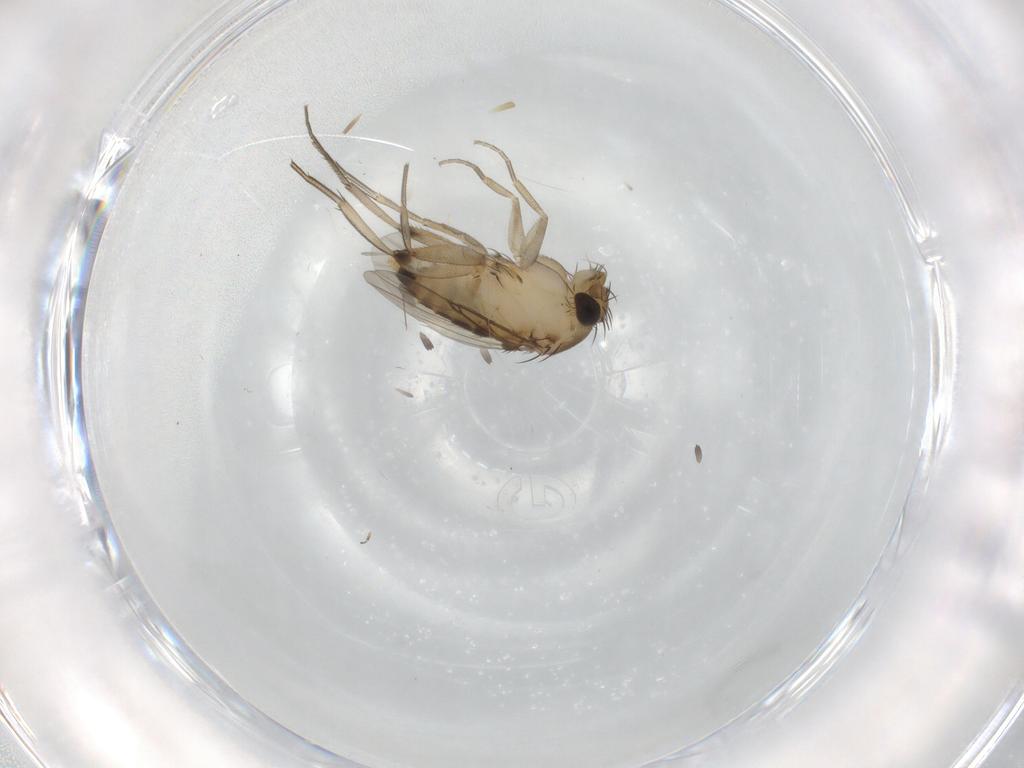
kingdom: Animalia
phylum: Arthropoda
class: Insecta
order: Diptera
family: Phoridae
